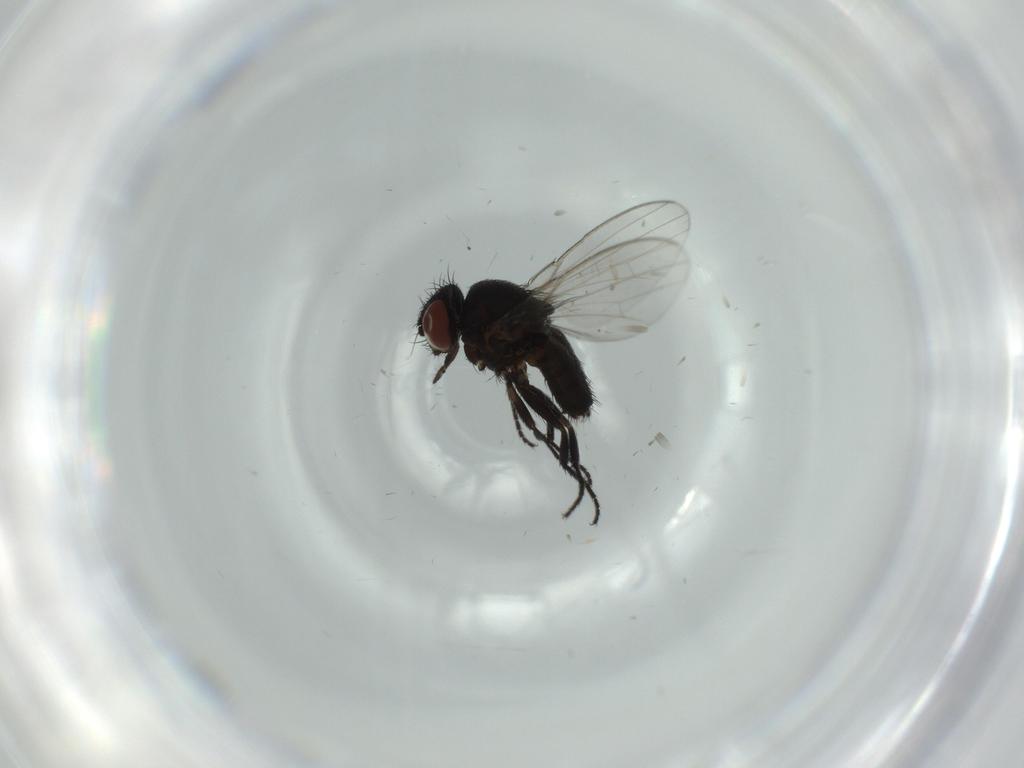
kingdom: Animalia
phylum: Arthropoda
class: Insecta
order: Diptera
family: Milichiidae
